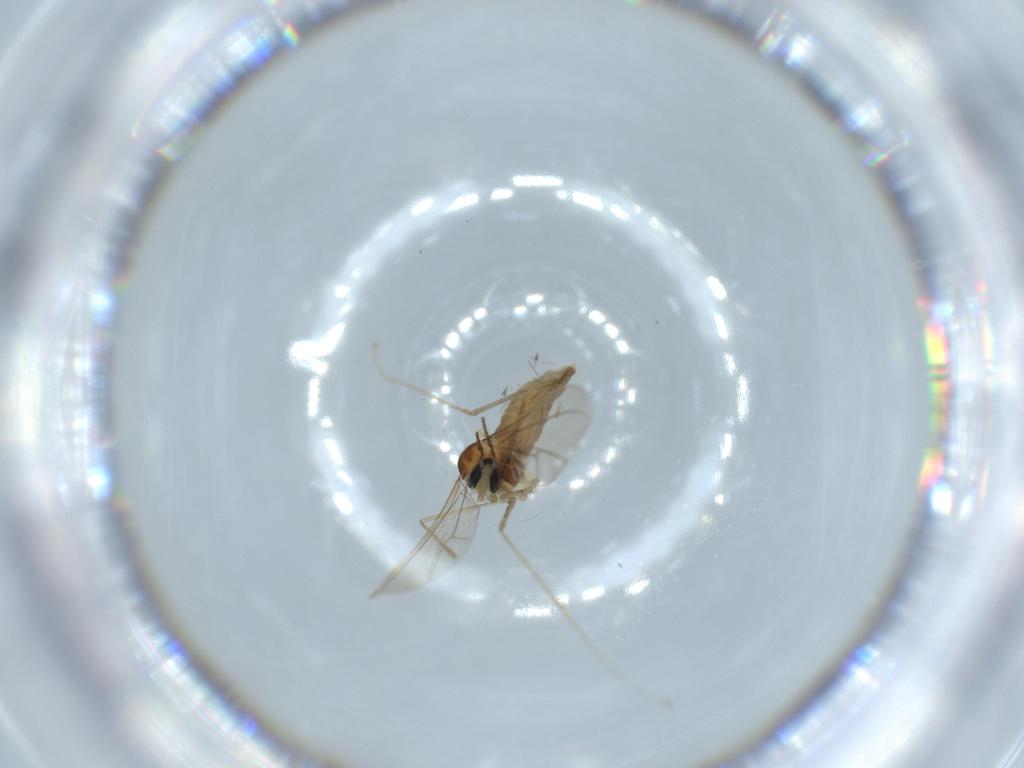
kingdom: Animalia
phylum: Arthropoda
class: Insecta
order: Diptera
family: Cecidomyiidae
